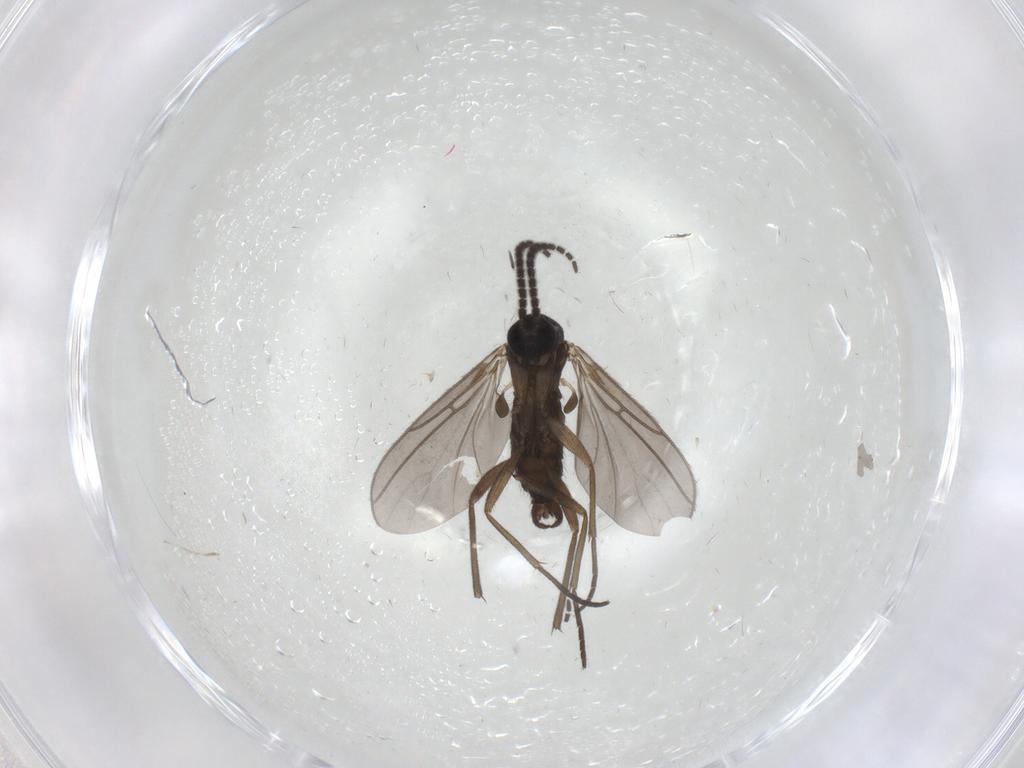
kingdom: Animalia
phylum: Arthropoda
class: Insecta
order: Diptera
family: Sciaridae
